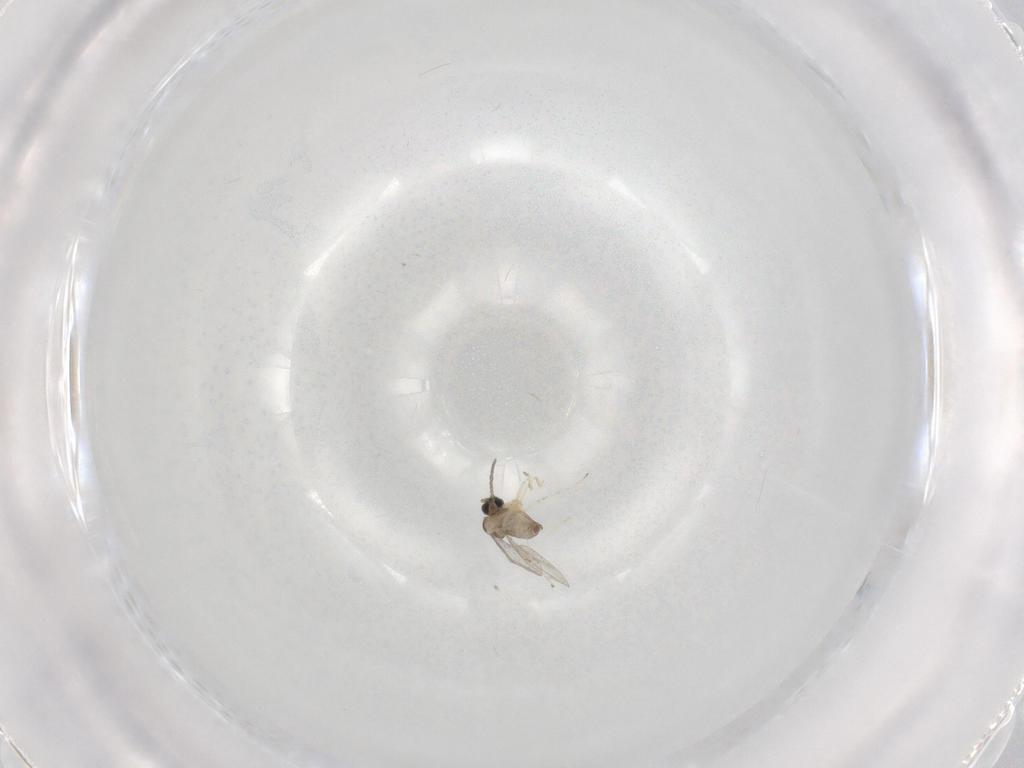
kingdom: Animalia
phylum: Arthropoda
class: Insecta
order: Diptera
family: Cecidomyiidae
